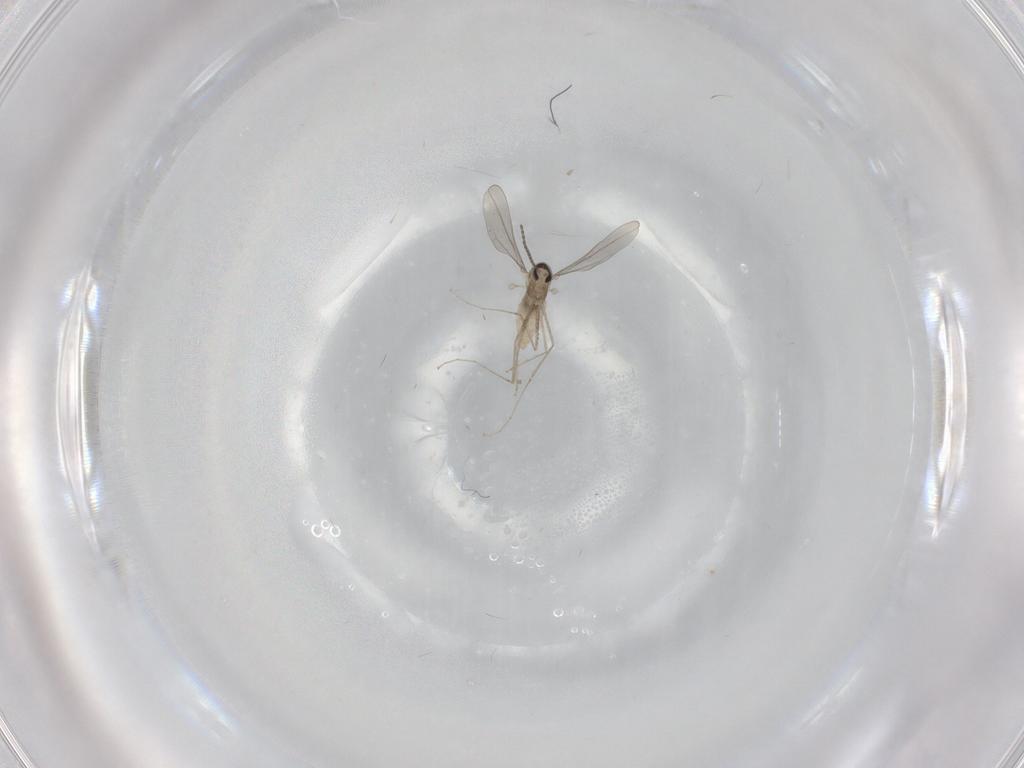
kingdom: Animalia
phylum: Arthropoda
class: Insecta
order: Diptera
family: Cecidomyiidae
